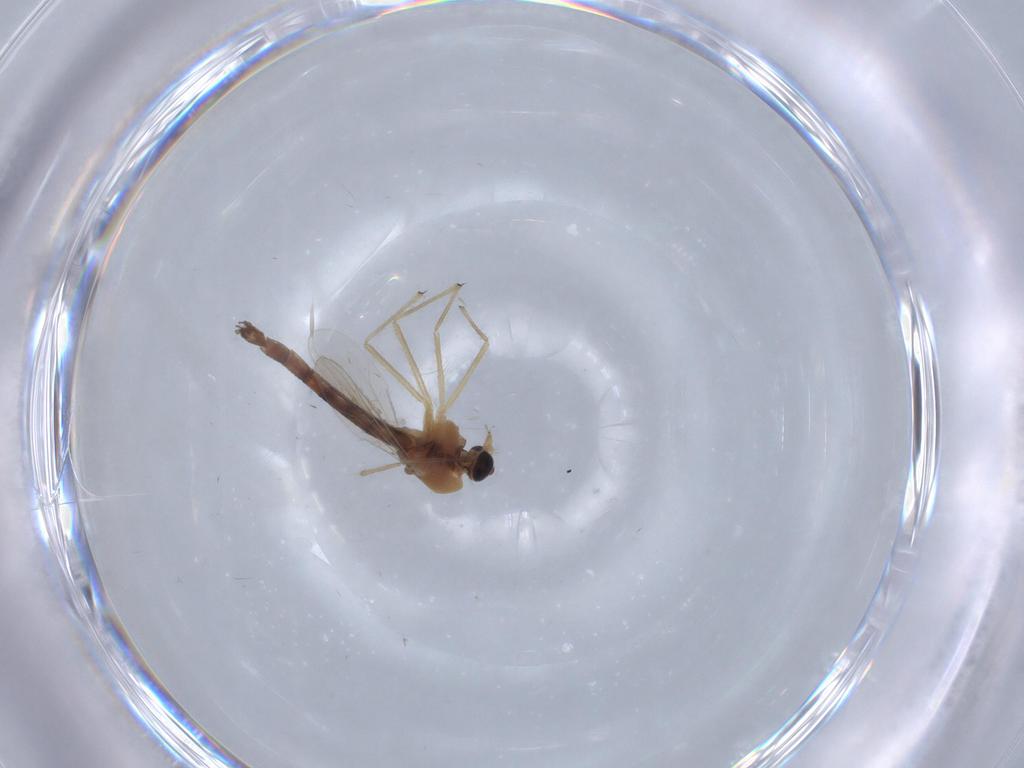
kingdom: Animalia
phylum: Arthropoda
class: Insecta
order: Diptera
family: Chironomidae
